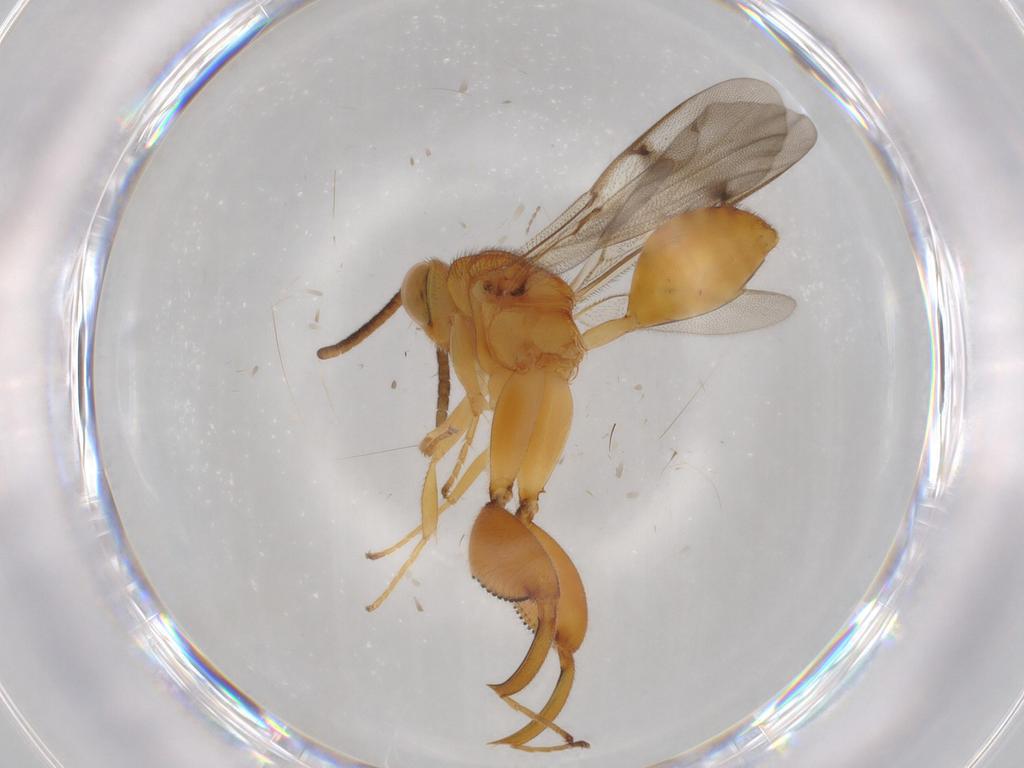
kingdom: Animalia
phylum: Arthropoda
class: Insecta
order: Hymenoptera
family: Chalcididae
